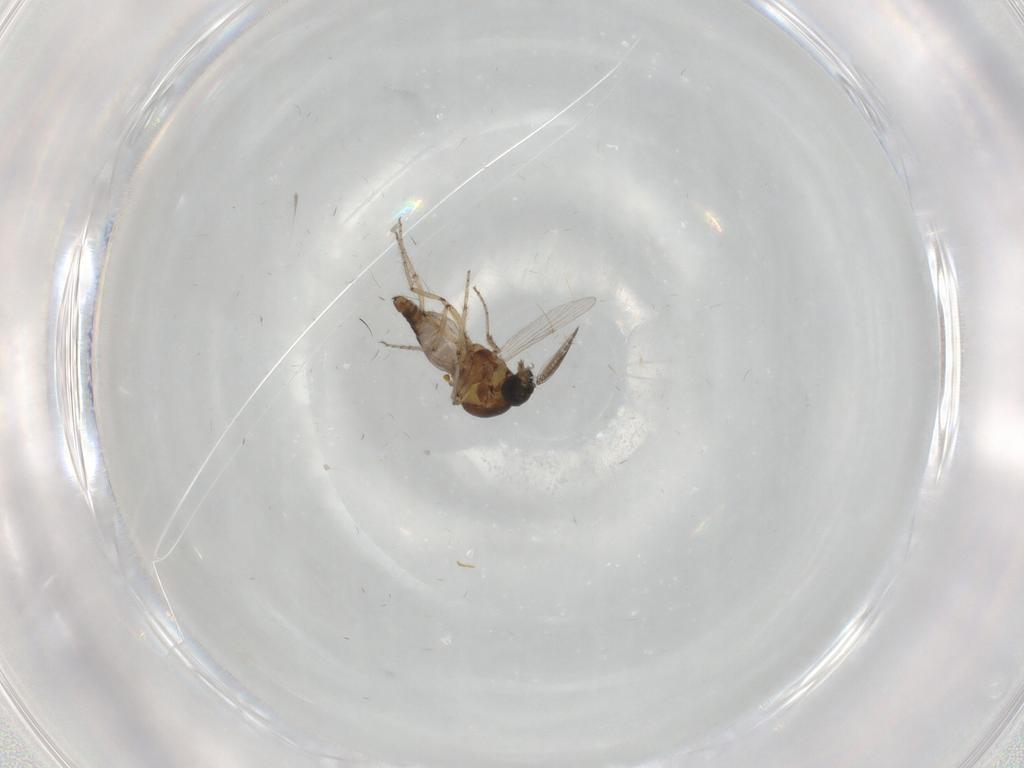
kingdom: Animalia
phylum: Arthropoda
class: Insecta
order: Diptera
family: Ceratopogonidae
